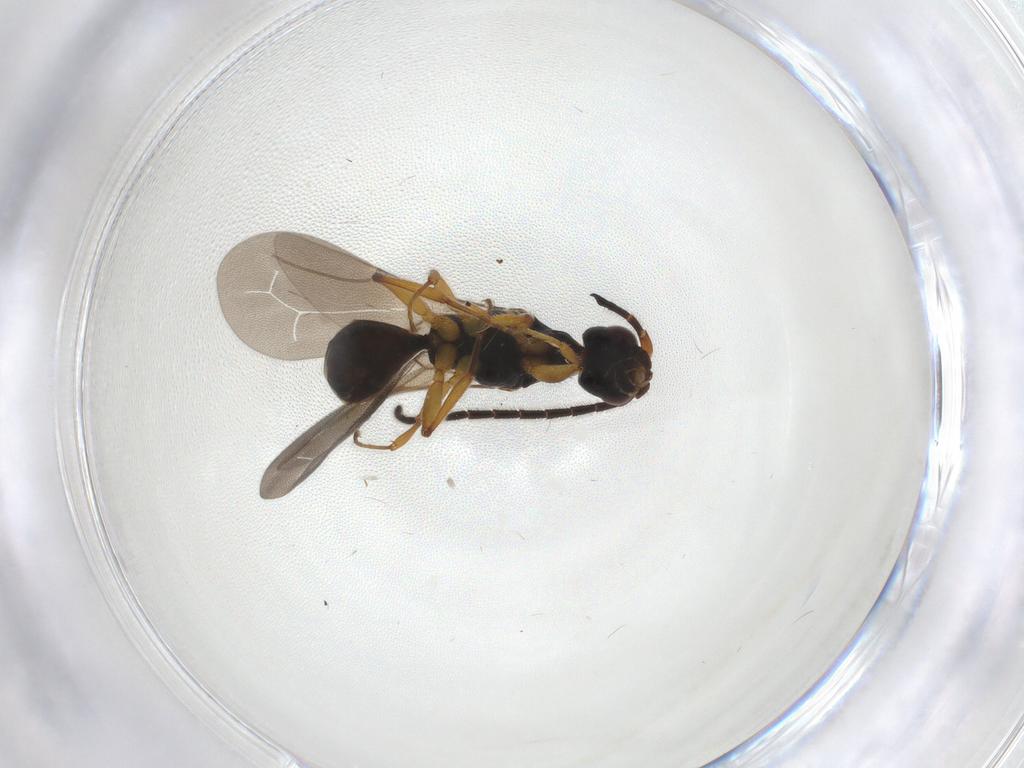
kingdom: Animalia
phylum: Arthropoda
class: Insecta
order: Hymenoptera
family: Bethylidae
